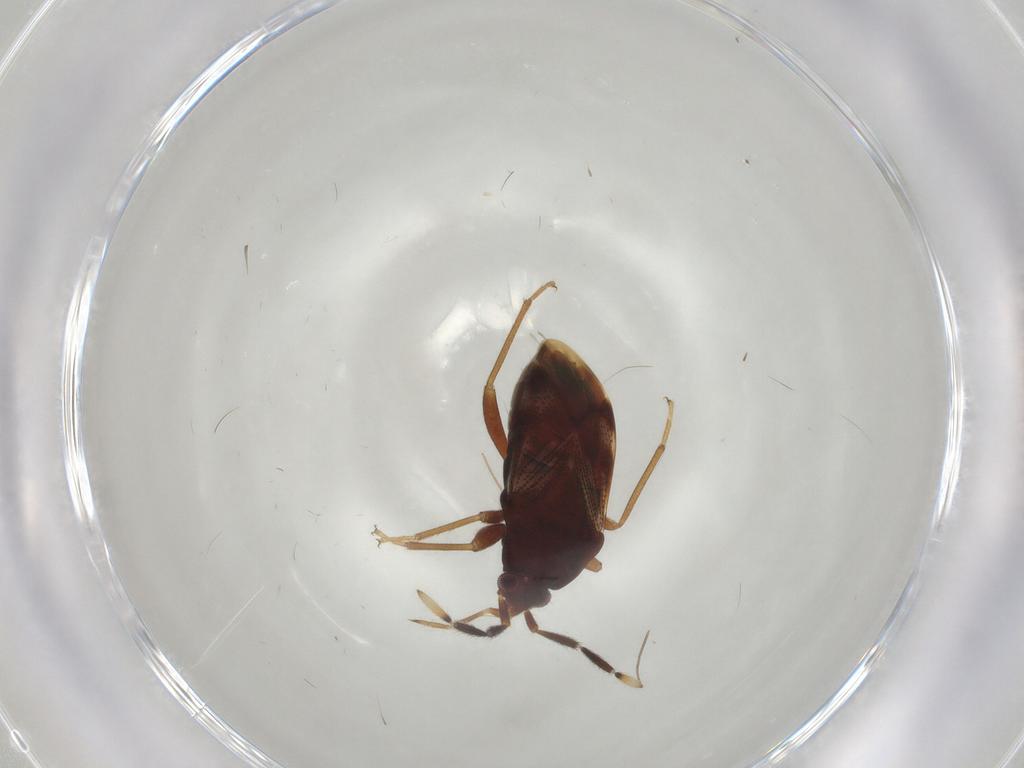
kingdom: Animalia
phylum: Arthropoda
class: Insecta
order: Hemiptera
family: Rhyparochromidae
